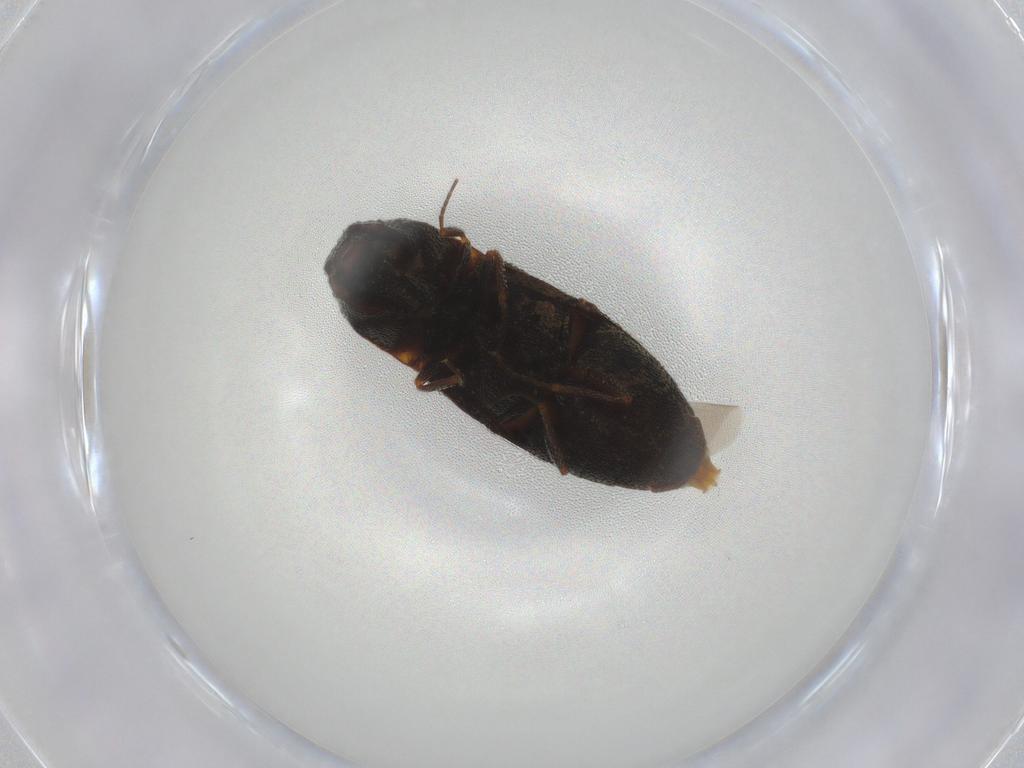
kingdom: Animalia
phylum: Arthropoda
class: Insecta
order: Coleoptera
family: Elateridae
